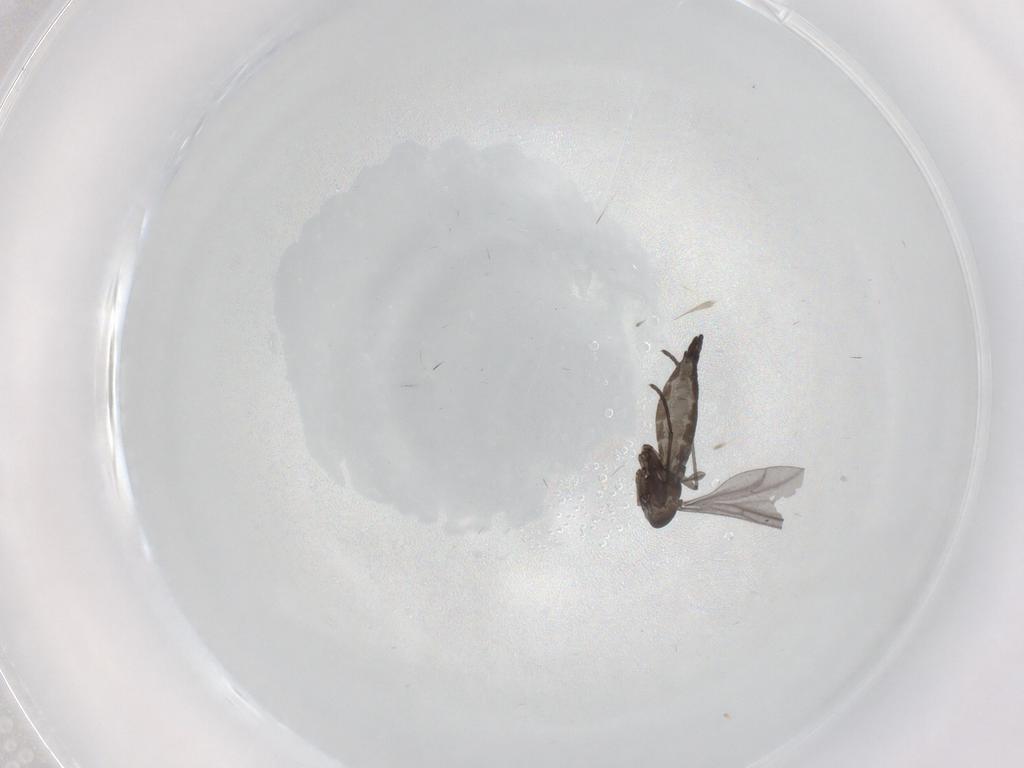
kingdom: Animalia
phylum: Arthropoda
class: Insecta
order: Diptera
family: Sciaridae
